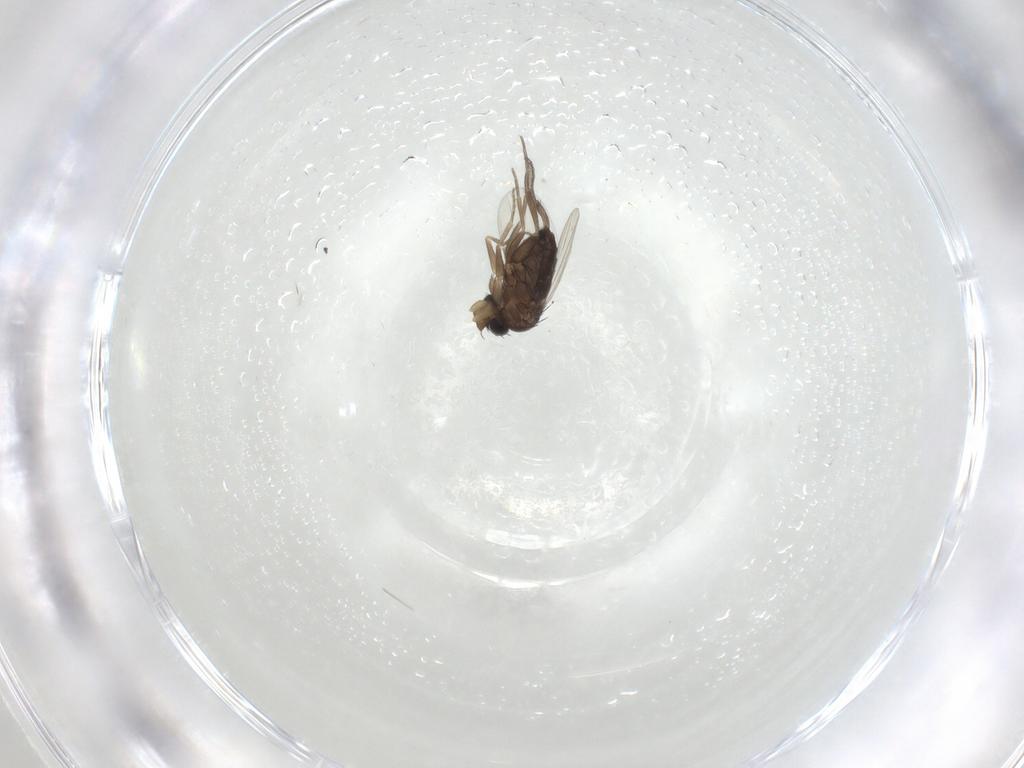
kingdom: Animalia
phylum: Arthropoda
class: Insecta
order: Diptera
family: Phoridae
